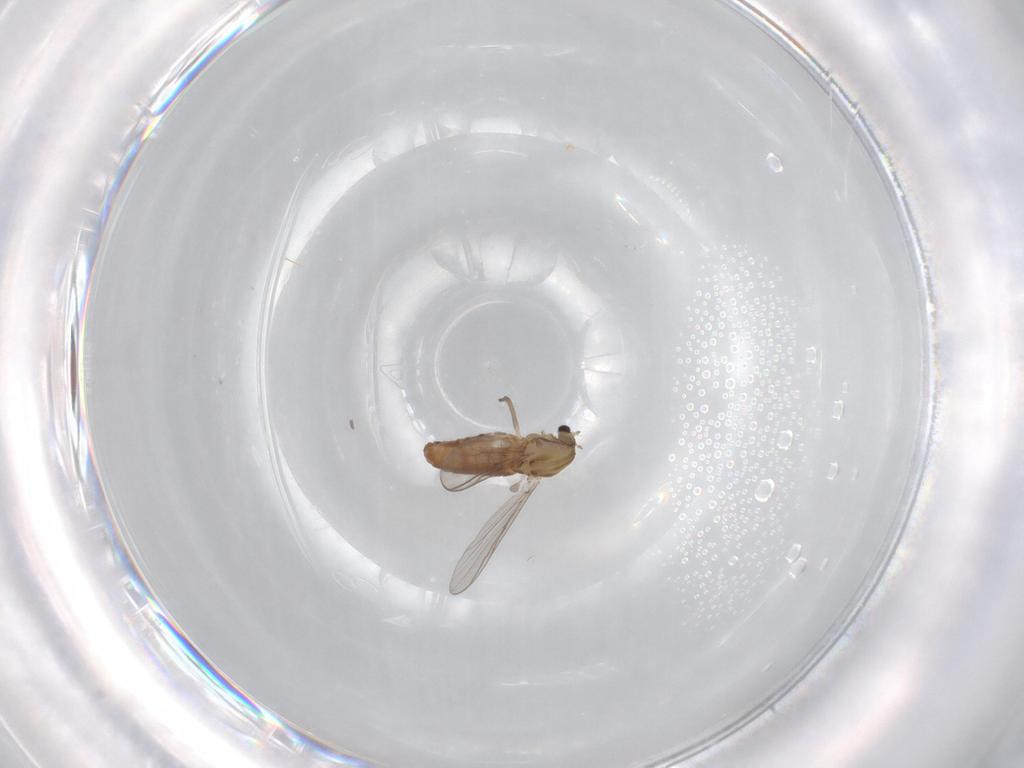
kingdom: Animalia
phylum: Arthropoda
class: Insecta
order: Diptera
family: Chironomidae
